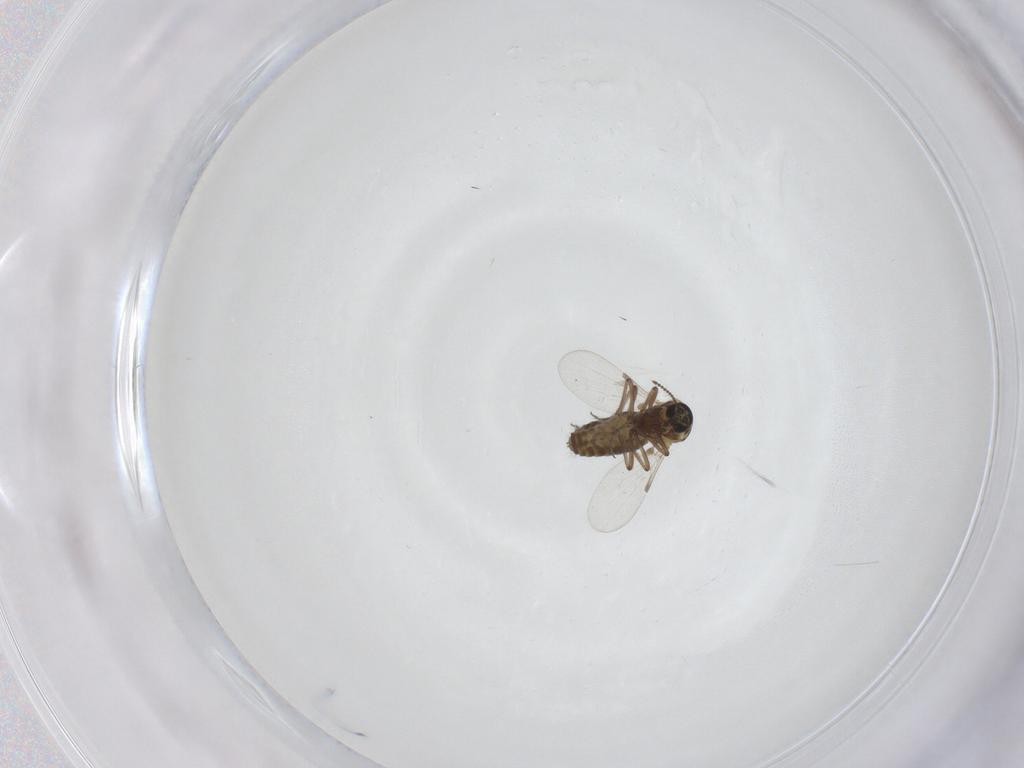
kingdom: Animalia
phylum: Arthropoda
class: Insecta
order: Diptera
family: Ceratopogonidae
